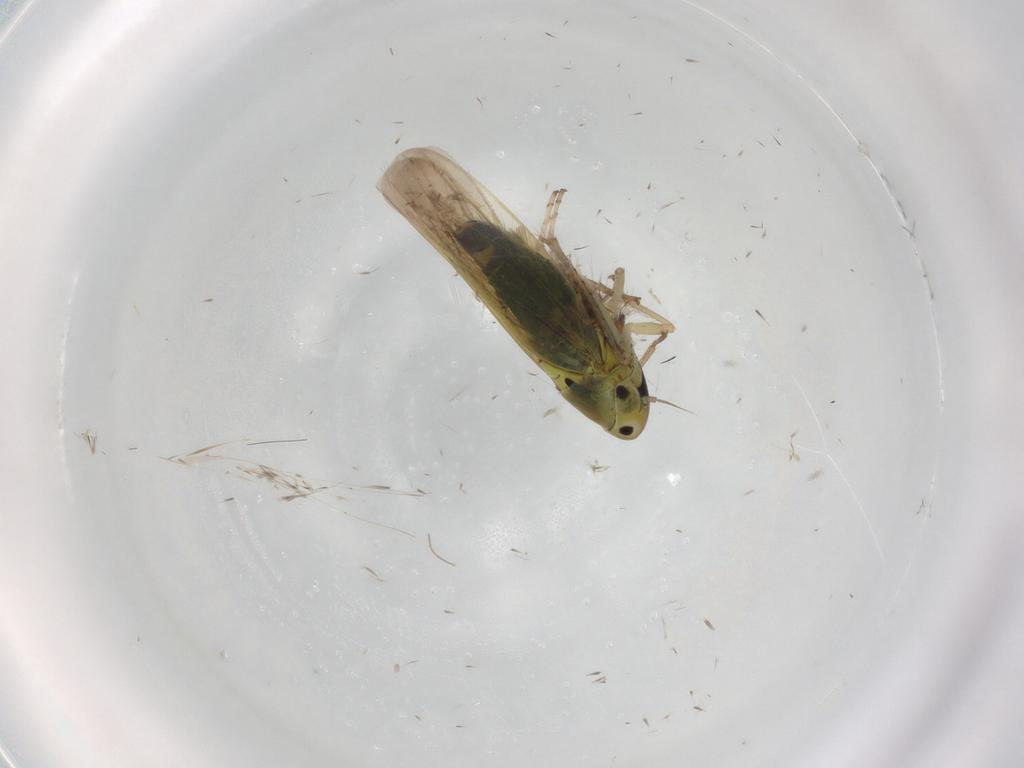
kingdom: Animalia
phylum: Arthropoda
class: Insecta
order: Hemiptera
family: Cicadellidae
